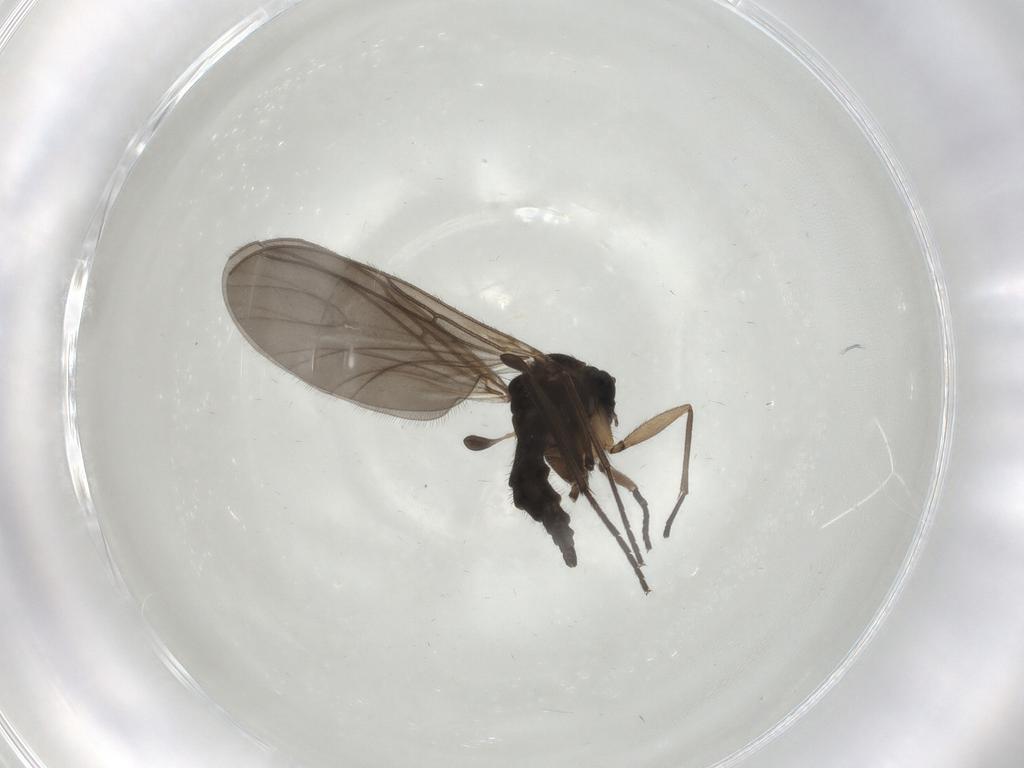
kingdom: Animalia
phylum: Arthropoda
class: Insecta
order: Diptera
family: Sciaridae
